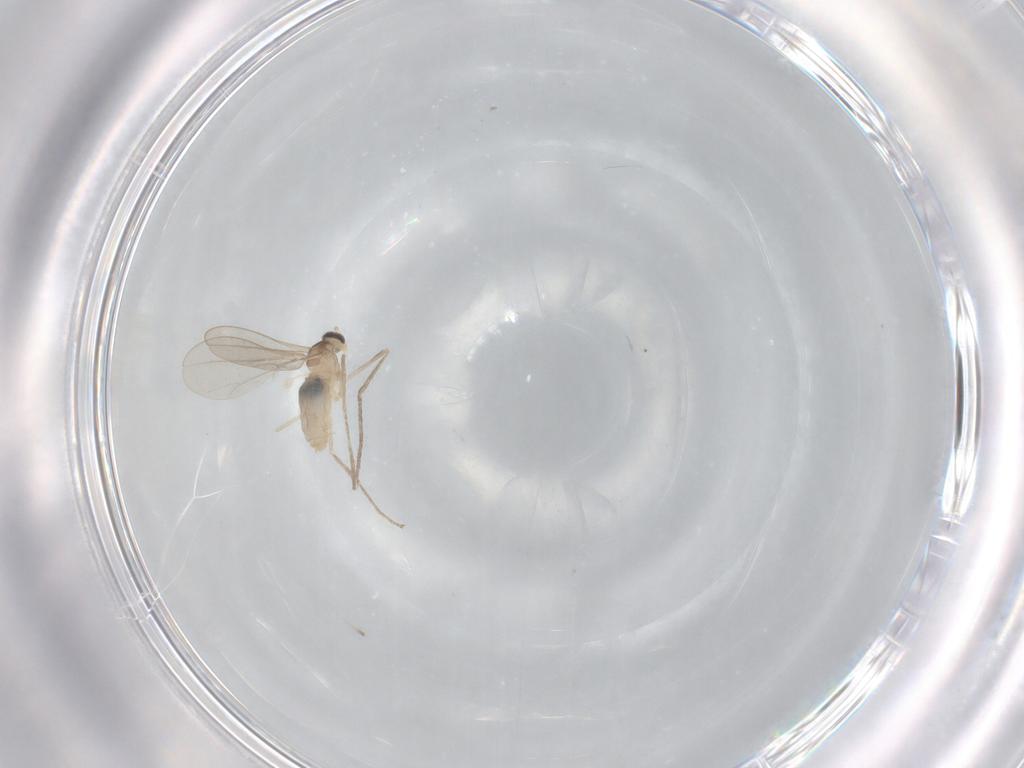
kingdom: Animalia
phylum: Arthropoda
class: Insecta
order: Diptera
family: Cecidomyiidae
